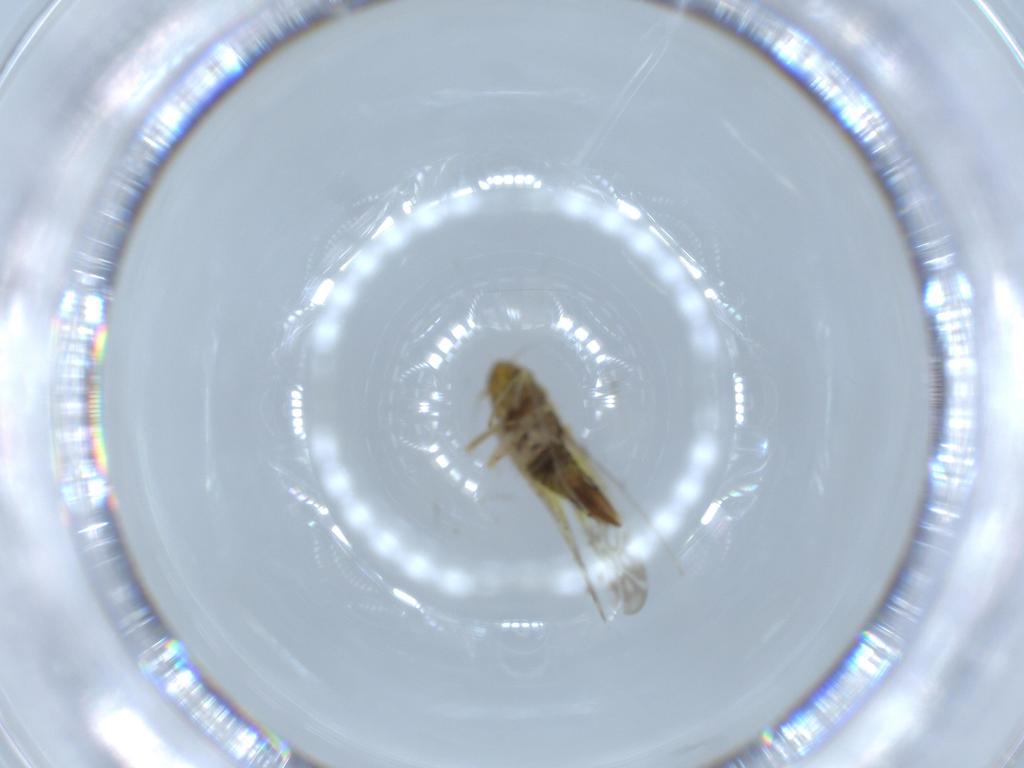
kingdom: Animalia
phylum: Arthropoda
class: Insecta
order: Hemiptera
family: Cicadellidae
